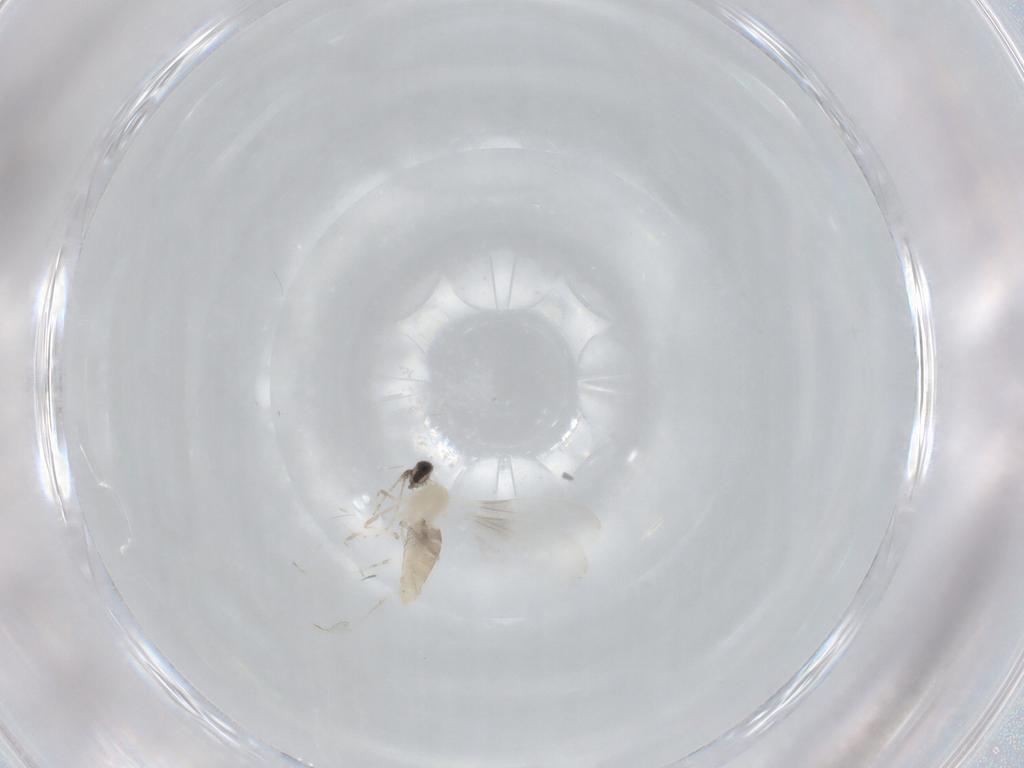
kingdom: Animalia
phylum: Arthropoda
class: Insecta
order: Diptera
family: Cecidomyiidae
